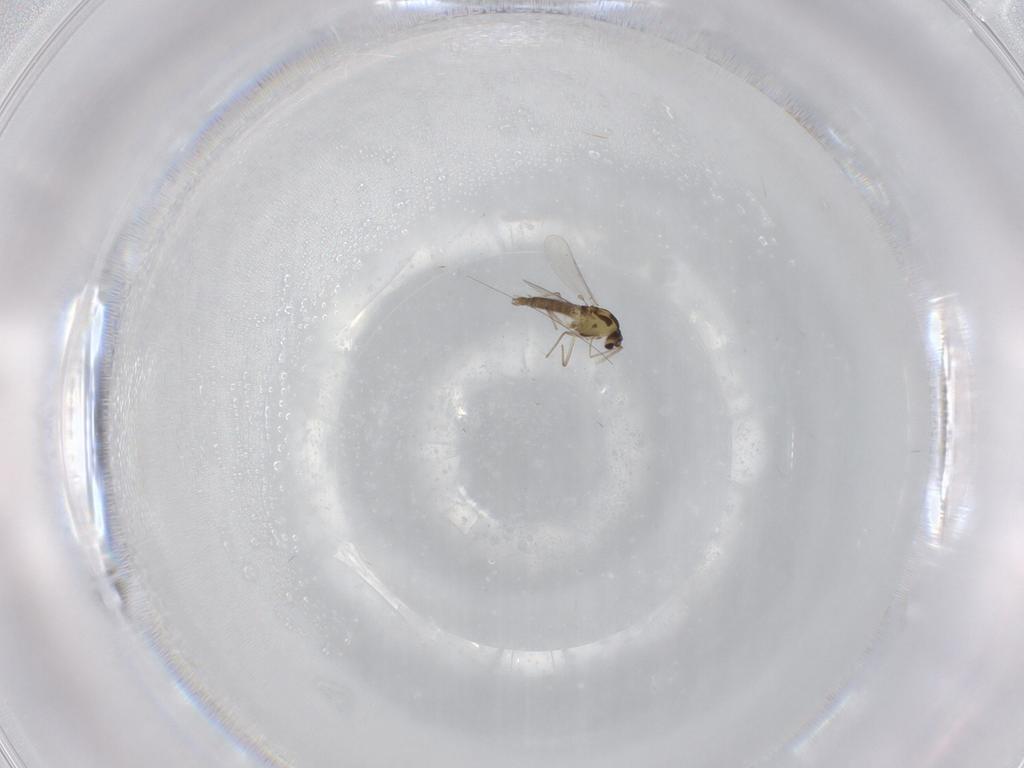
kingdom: Animalia
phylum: Arthropoda
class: Insecta
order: Diptera
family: Chironomidae
